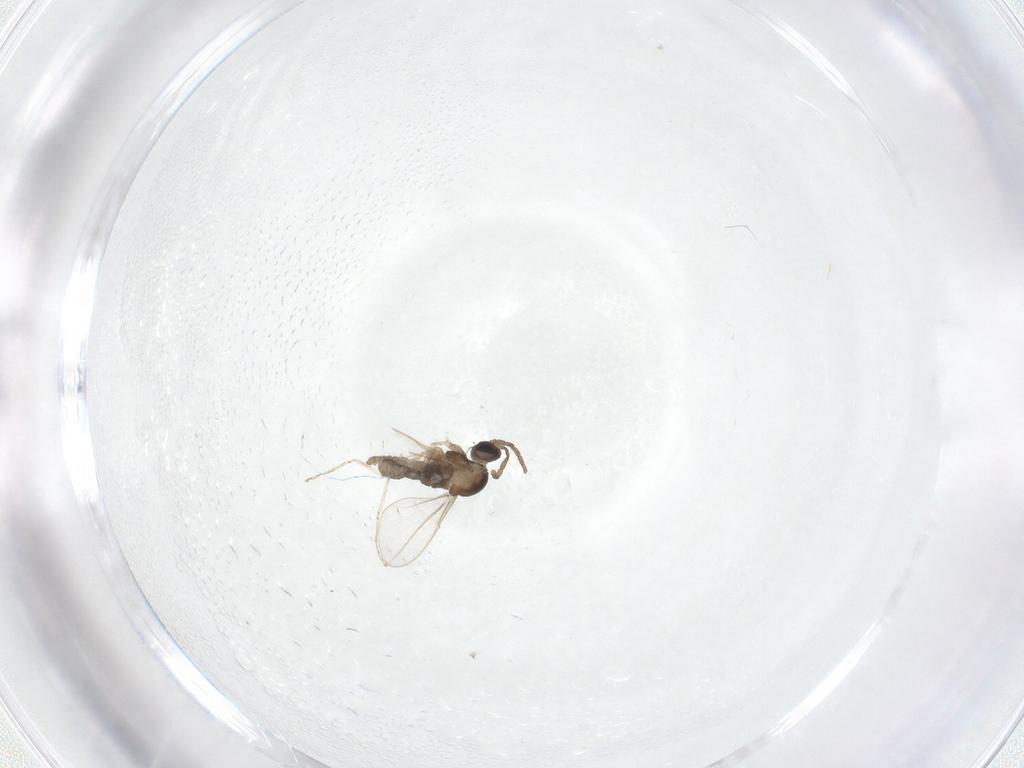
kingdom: Animalia
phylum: Arthropoda
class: Insecta
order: Diptera
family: Cecidomyiidae
